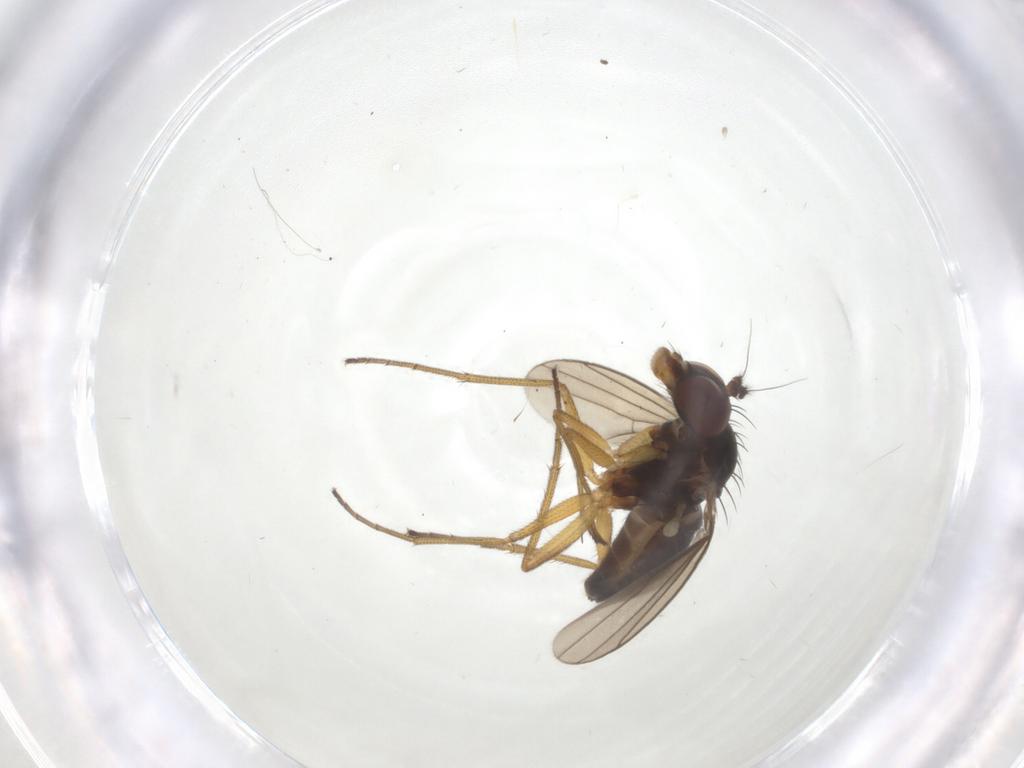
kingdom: Animalia
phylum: Arthropoda
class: Insecta
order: Diptera
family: Dolichopodidae
